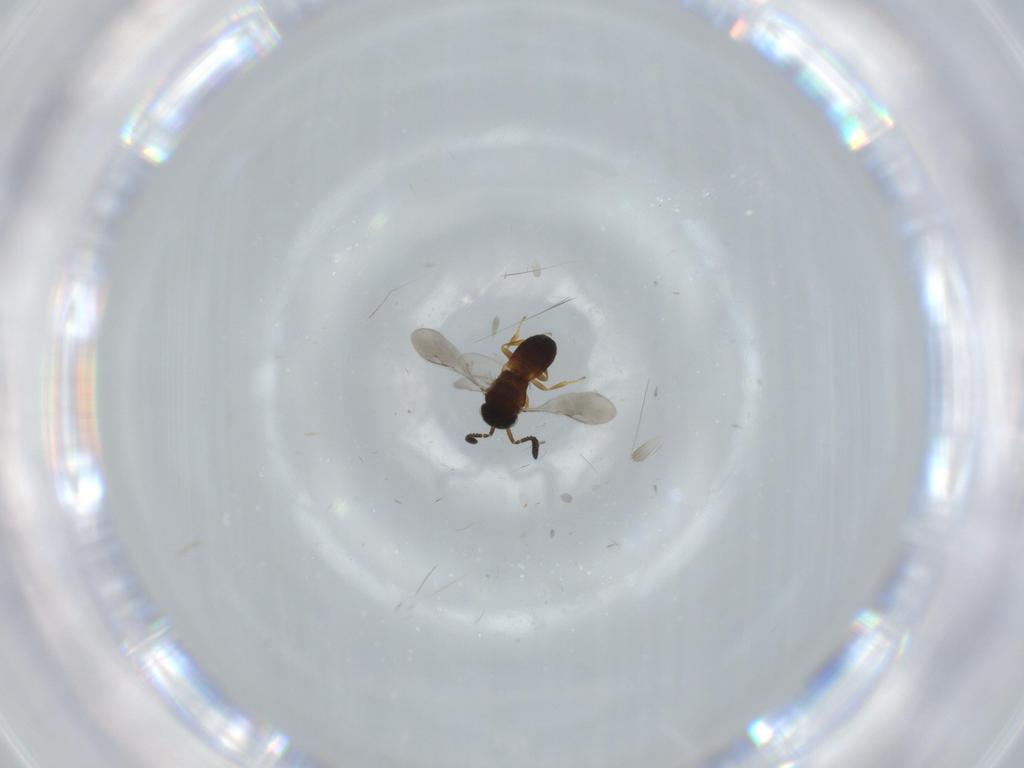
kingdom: Animalia
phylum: Arthropoda
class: Insecta
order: Hymenoptera
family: Scelionidae
